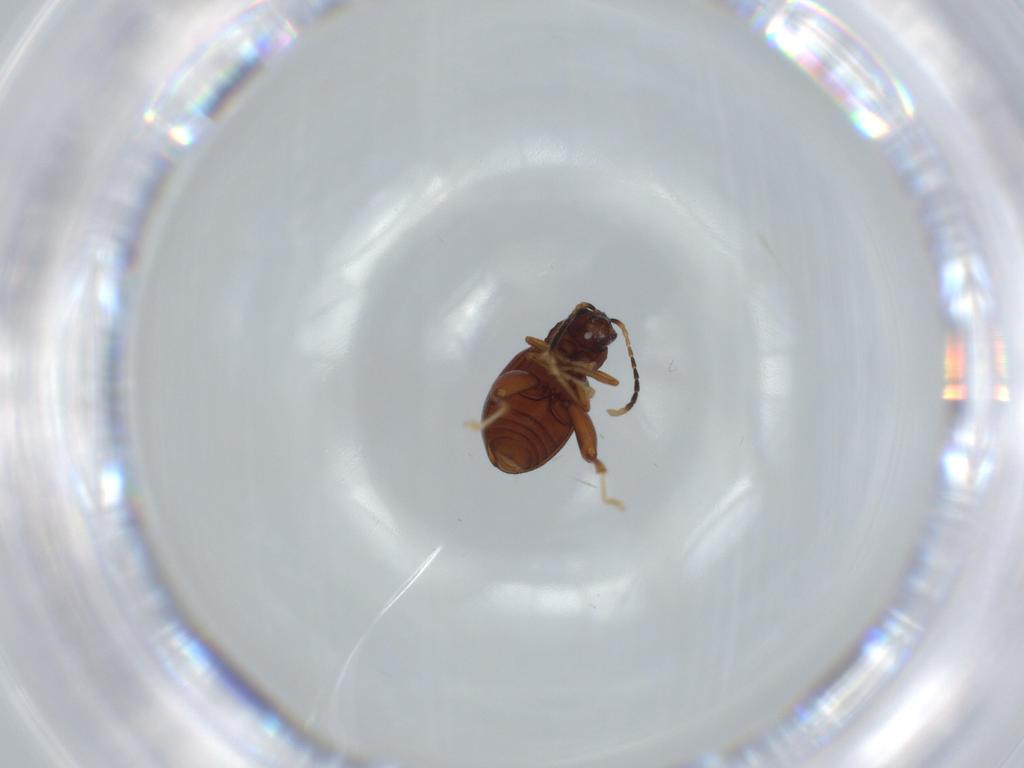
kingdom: Animalia
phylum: Arthropoda
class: Insecta
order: Coleoptera
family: Chrysomelidae
